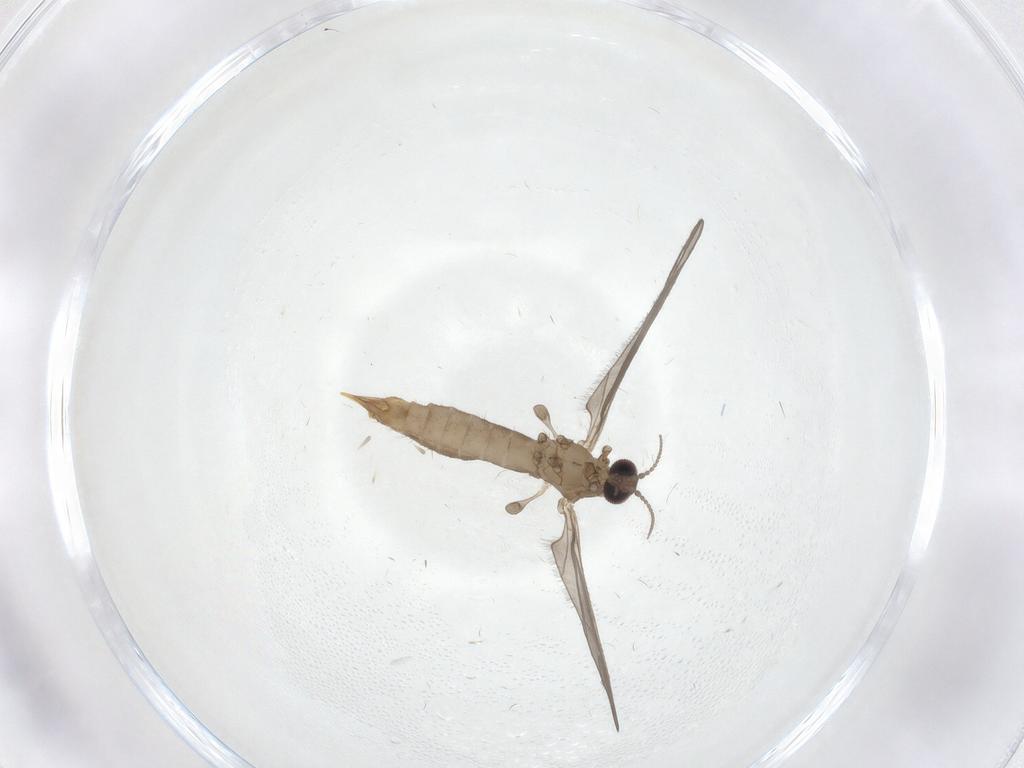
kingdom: Animalia
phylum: Arthropoda
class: Insecta
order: Diptera
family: Limoniidae
